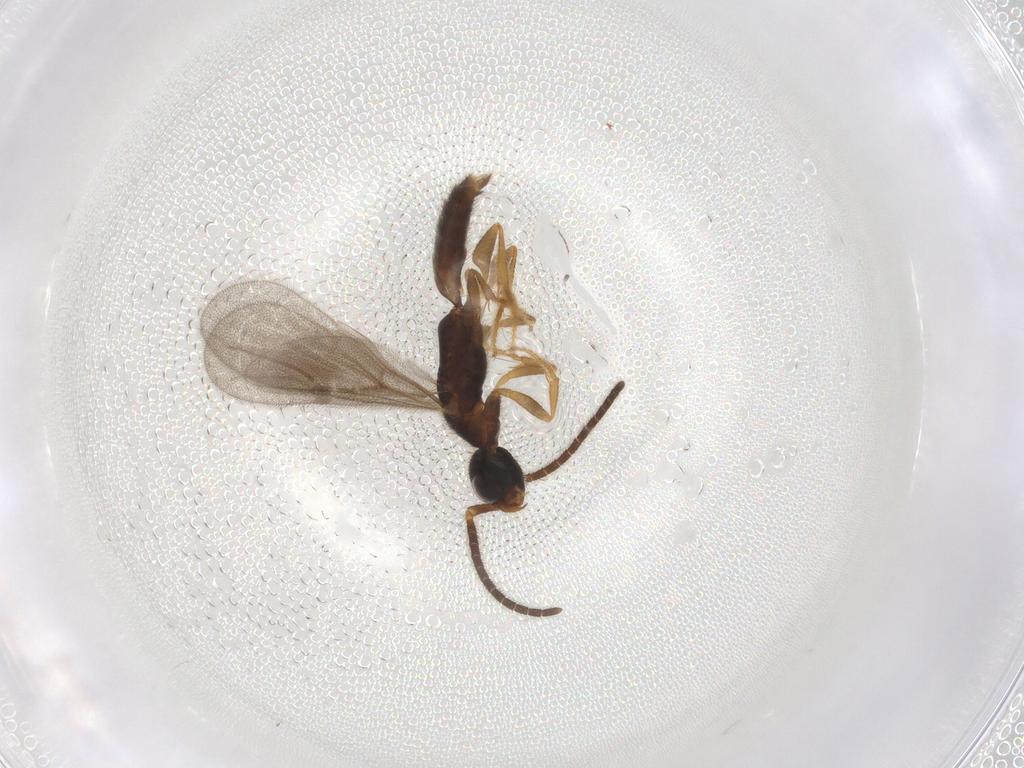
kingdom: Animalia
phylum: Arthropoda
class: Insecta
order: Hymenoptera
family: Bethylidae
